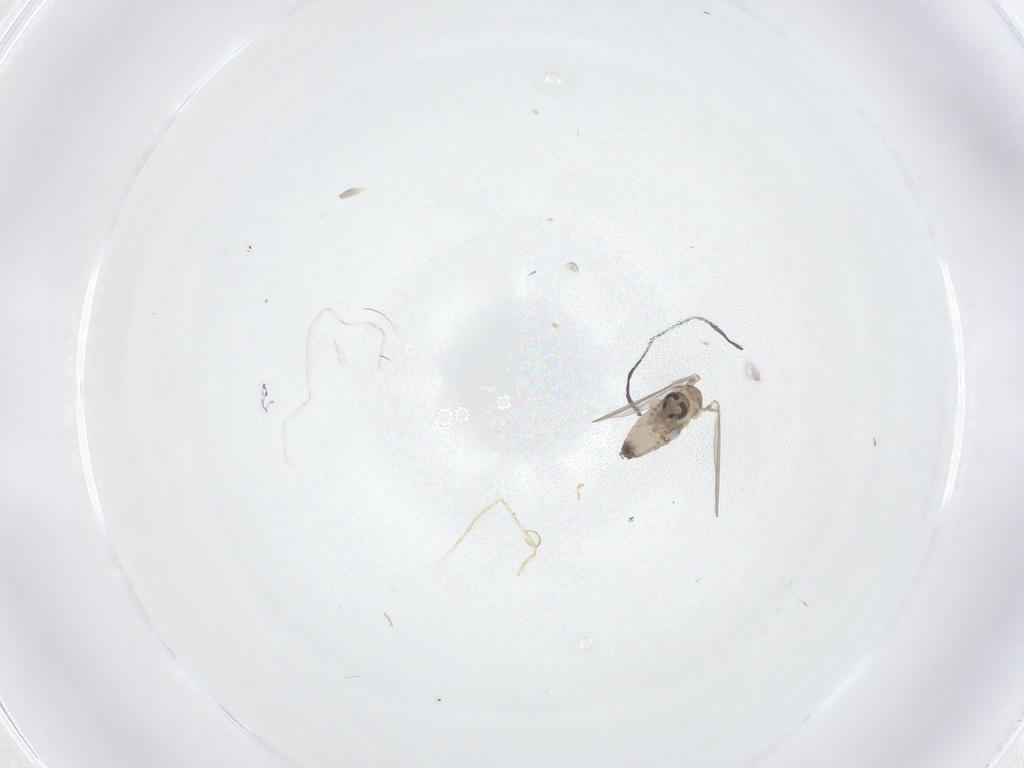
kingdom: Animalia
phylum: Arthropoda
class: Insecta
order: Diptera
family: Psychodidae
